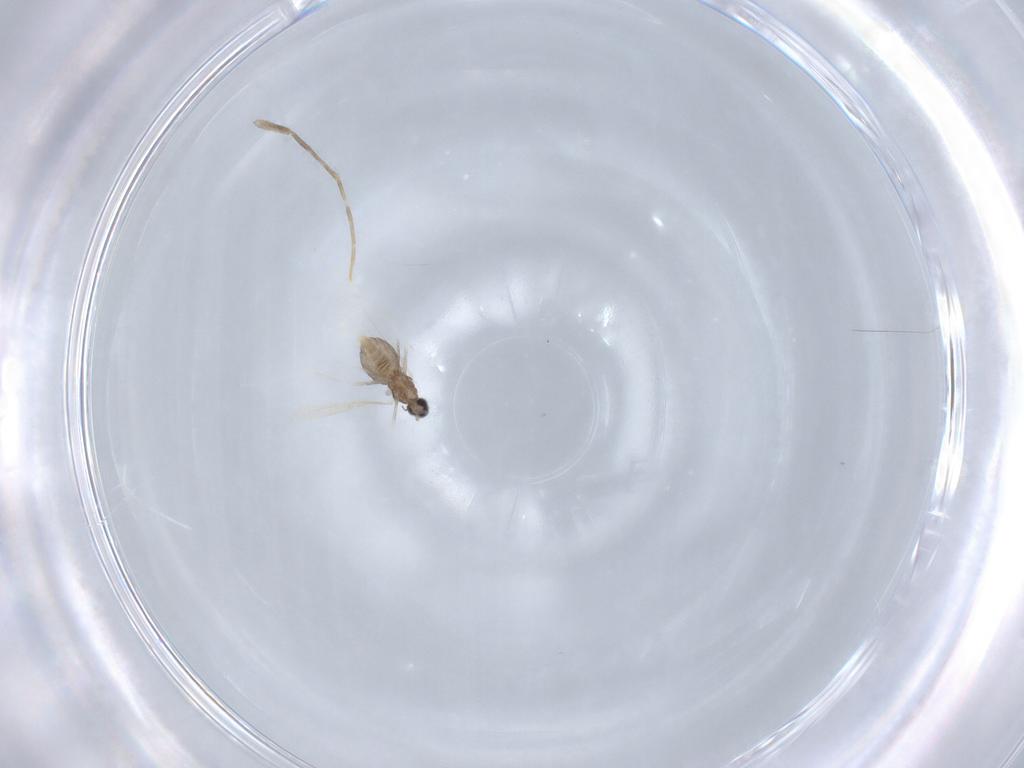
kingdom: Animalia
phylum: Arthropoda
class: Insecta
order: Diptera
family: Cecidomyiidae
